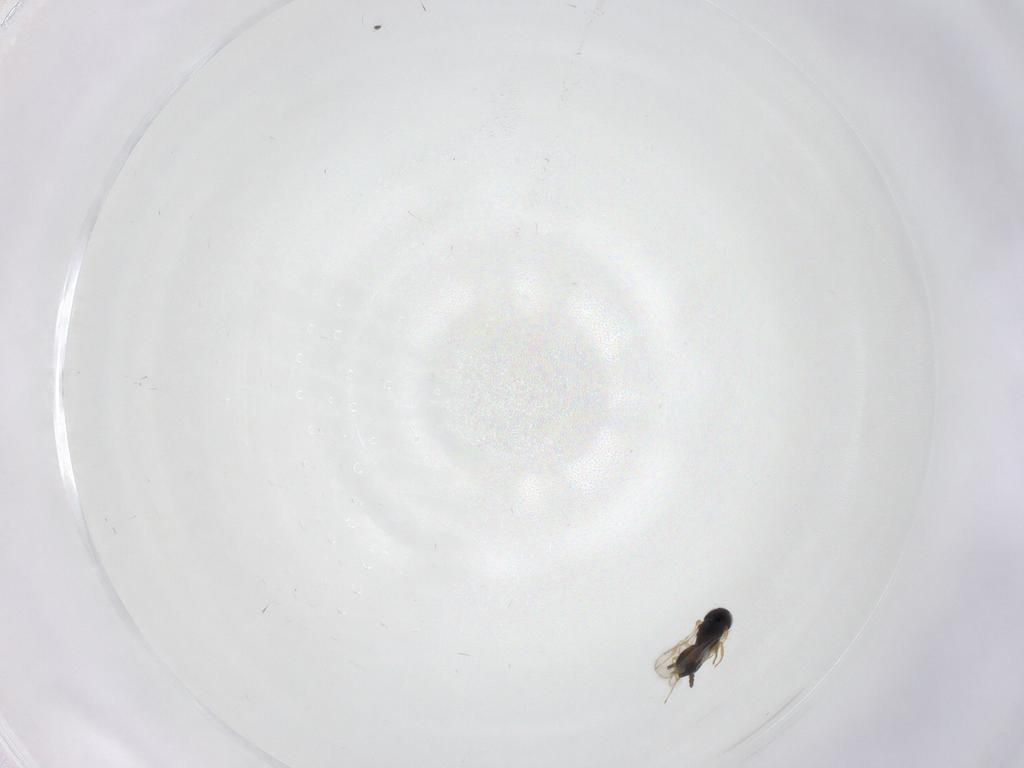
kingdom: Animalia
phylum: Arthropoda
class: Insecta
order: Hymenoptera
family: Scelionidae
